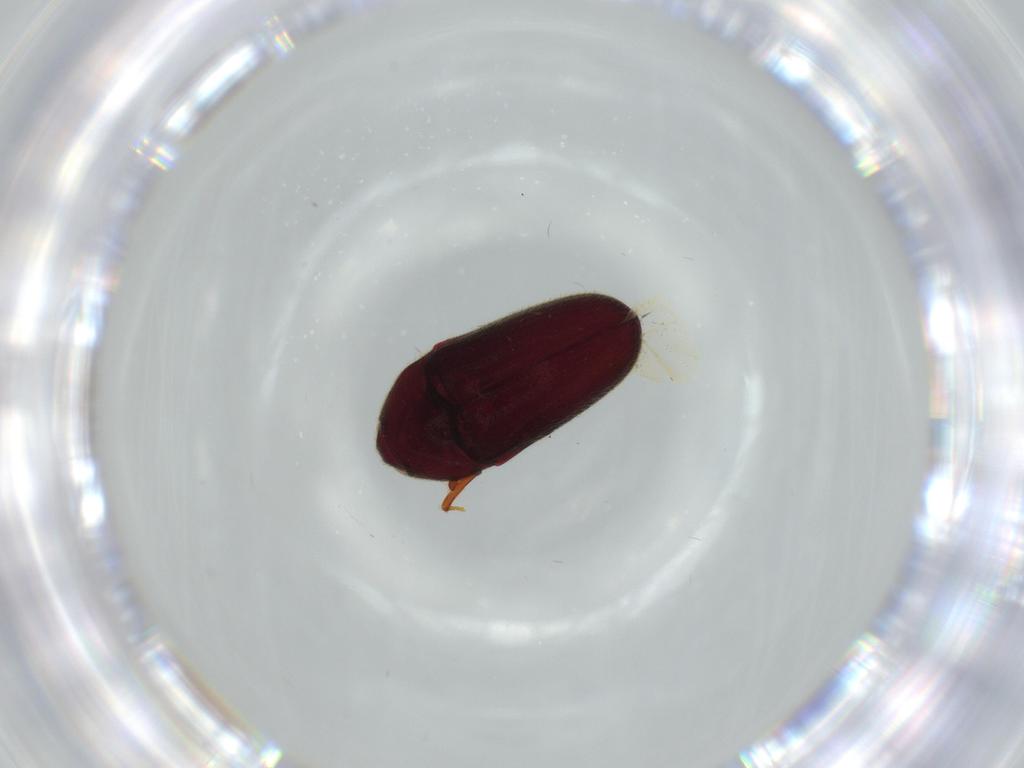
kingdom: Animalia
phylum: Arthropoda
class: Insecta
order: Coleoptera
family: Throscidae
